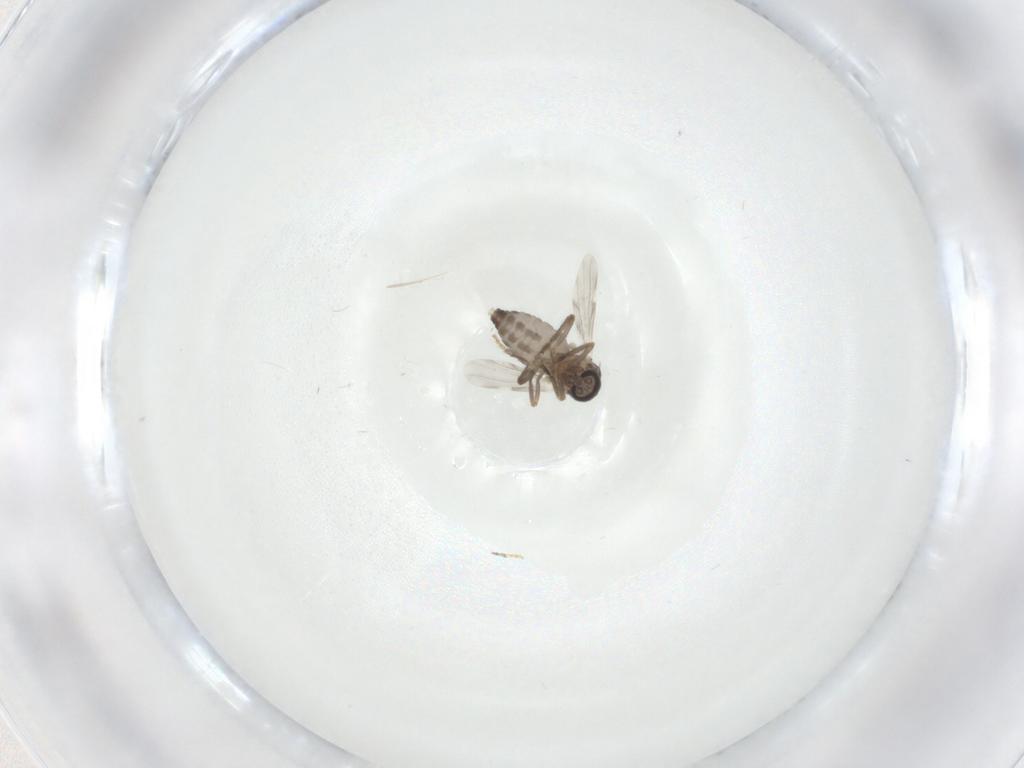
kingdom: Animalia
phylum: Arthropoda
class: Insecta
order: Diptera
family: Ceratopogonidae
